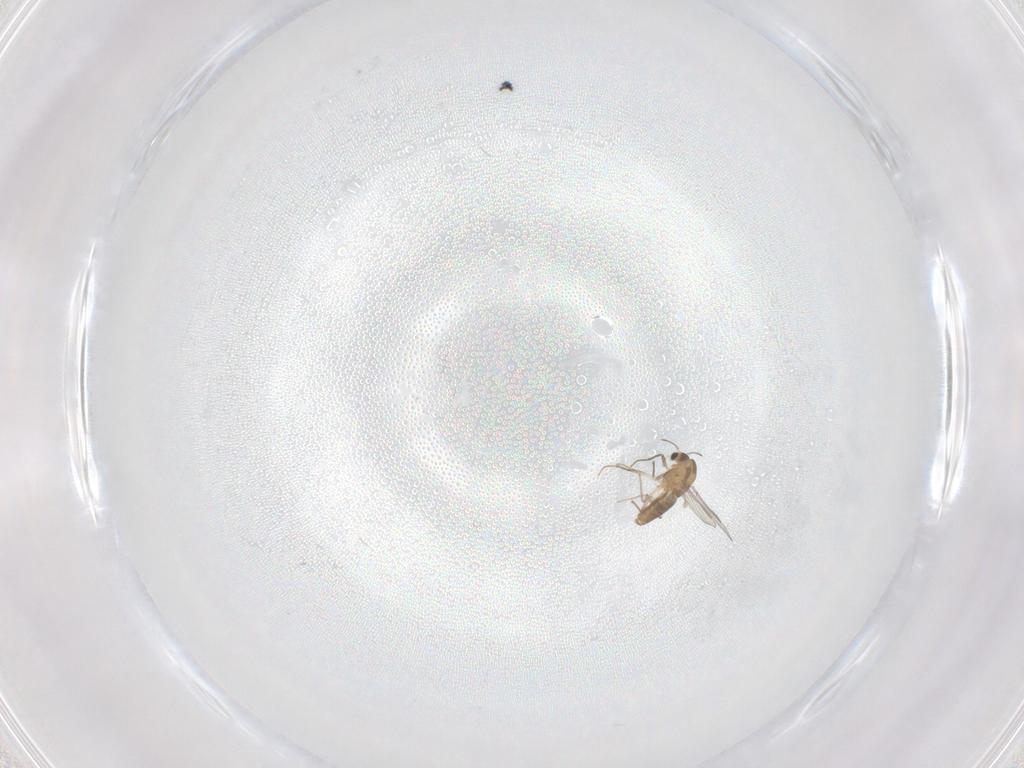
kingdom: Animalia
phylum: Arthropoda
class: Insecta
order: Diptera
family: Chironomidae
